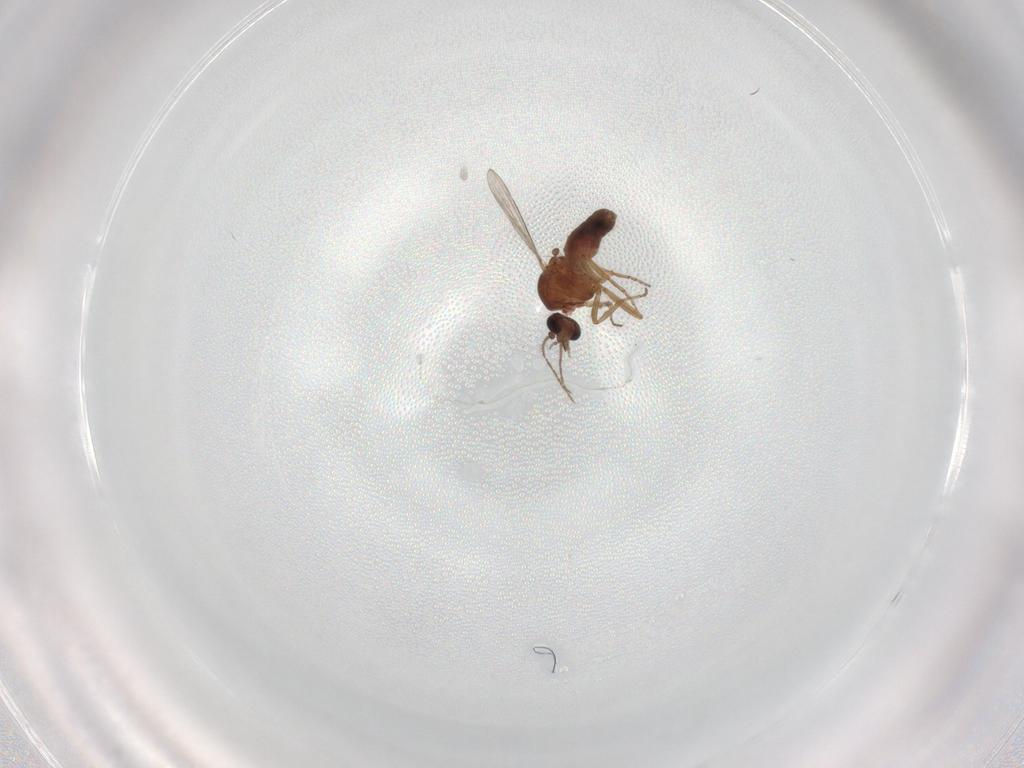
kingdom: Animalia
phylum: Arthropoda
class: Insecta
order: Diptera
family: Ceratopogonidae
